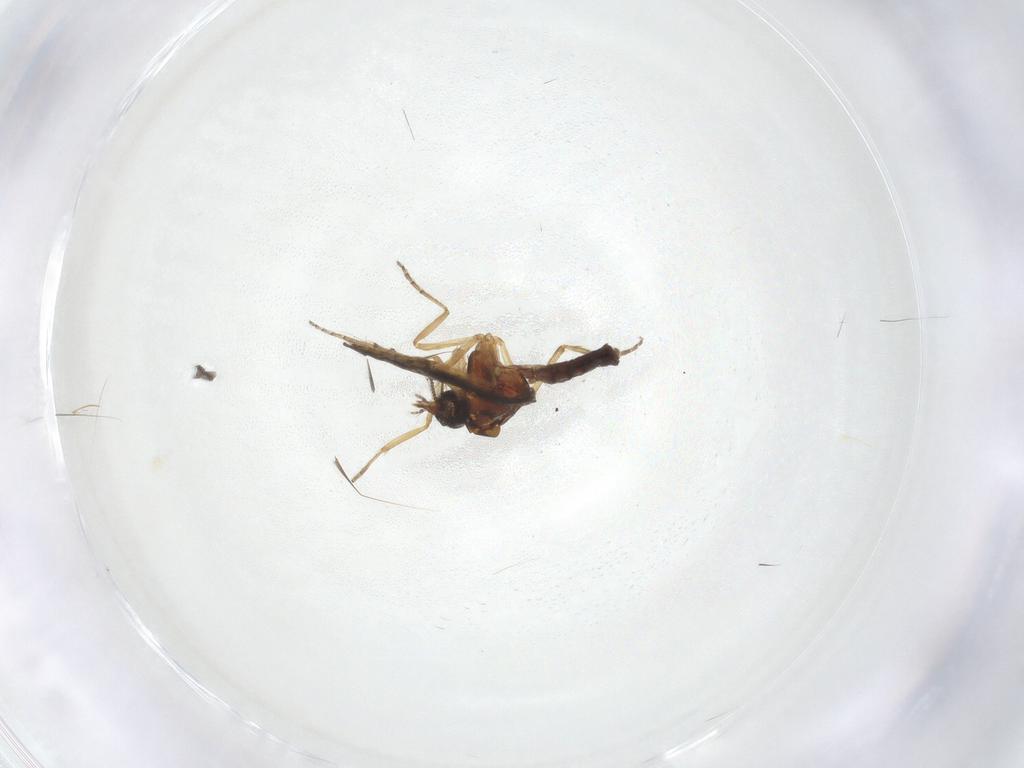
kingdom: Animalia
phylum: Arthropoda
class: Insecta
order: Diptera
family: Ceratopogonidae
